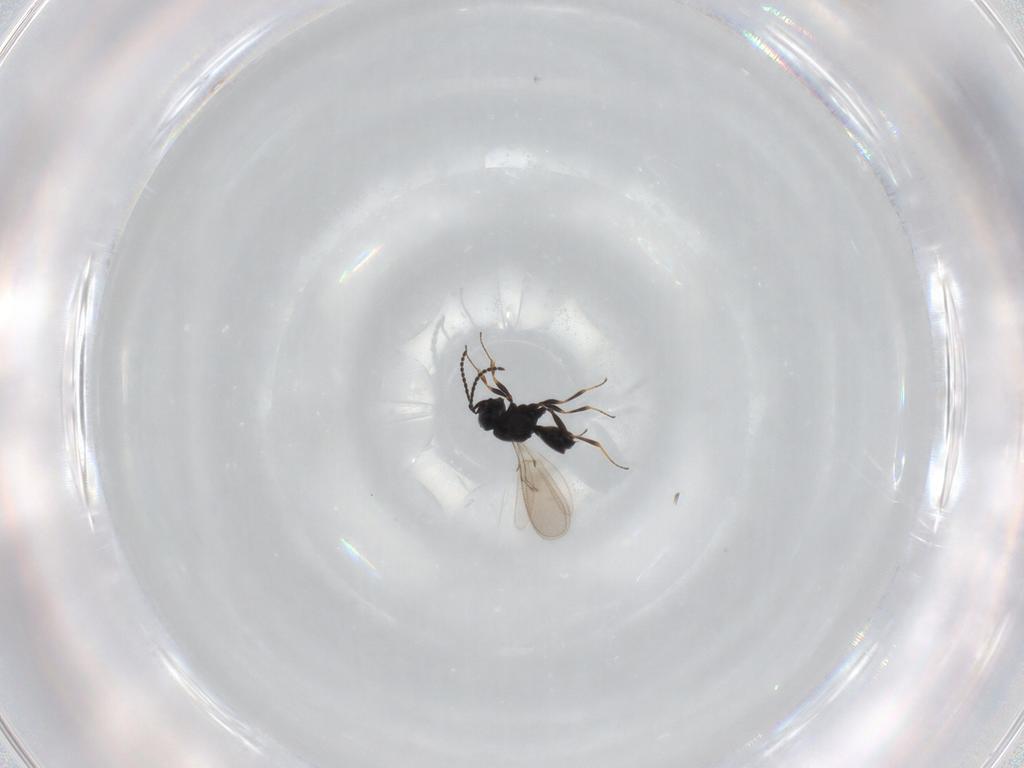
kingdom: Animalia
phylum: Arthropoda
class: Insecta
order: Hymenoptera
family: Scelionidae
